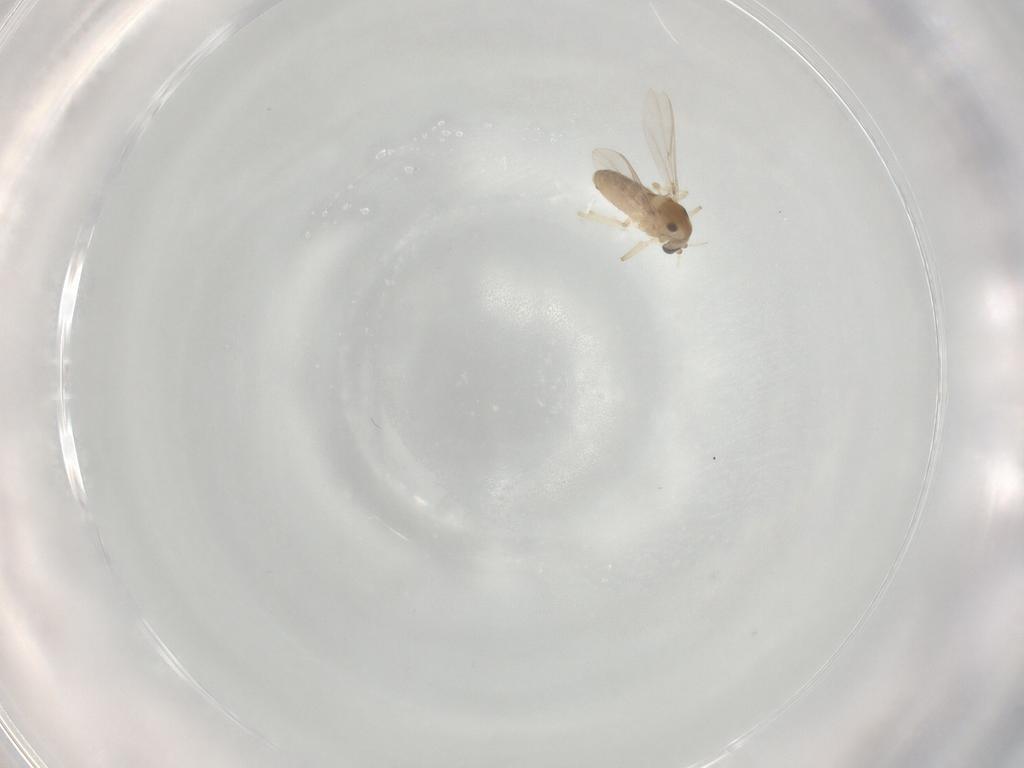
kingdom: Animalia
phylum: Arthropoda
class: Insecta
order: Diptera
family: Chironomidae
